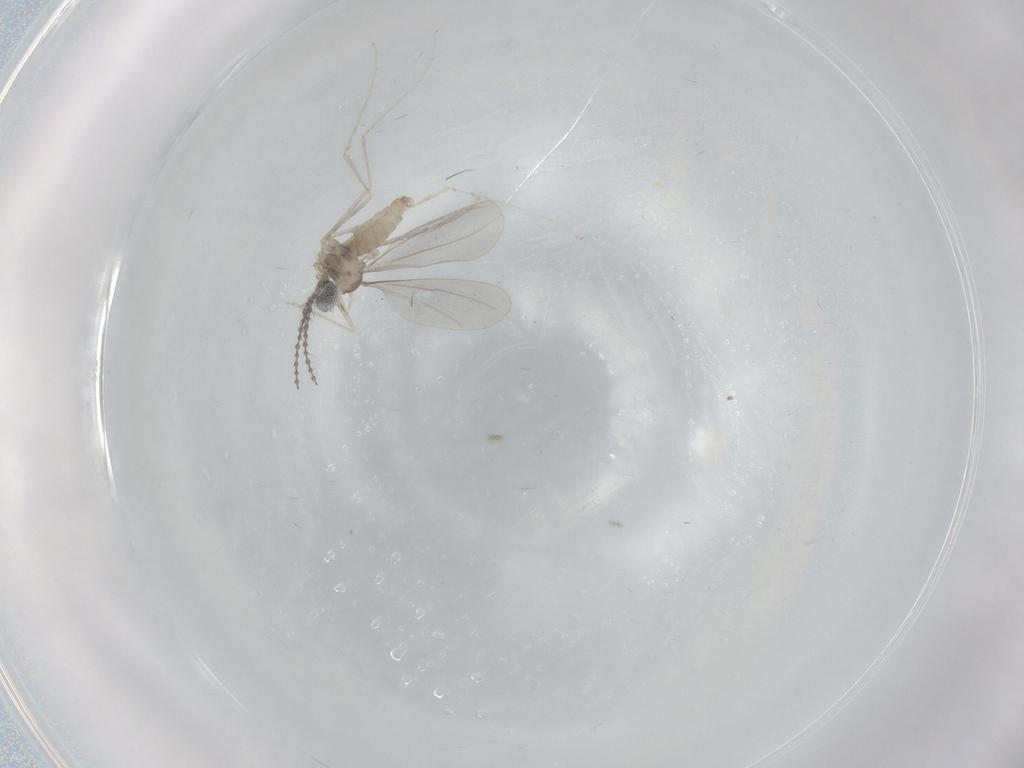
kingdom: Animalia
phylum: Arthropoda
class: Insecta
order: Diptera
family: Cecidomyiidae
